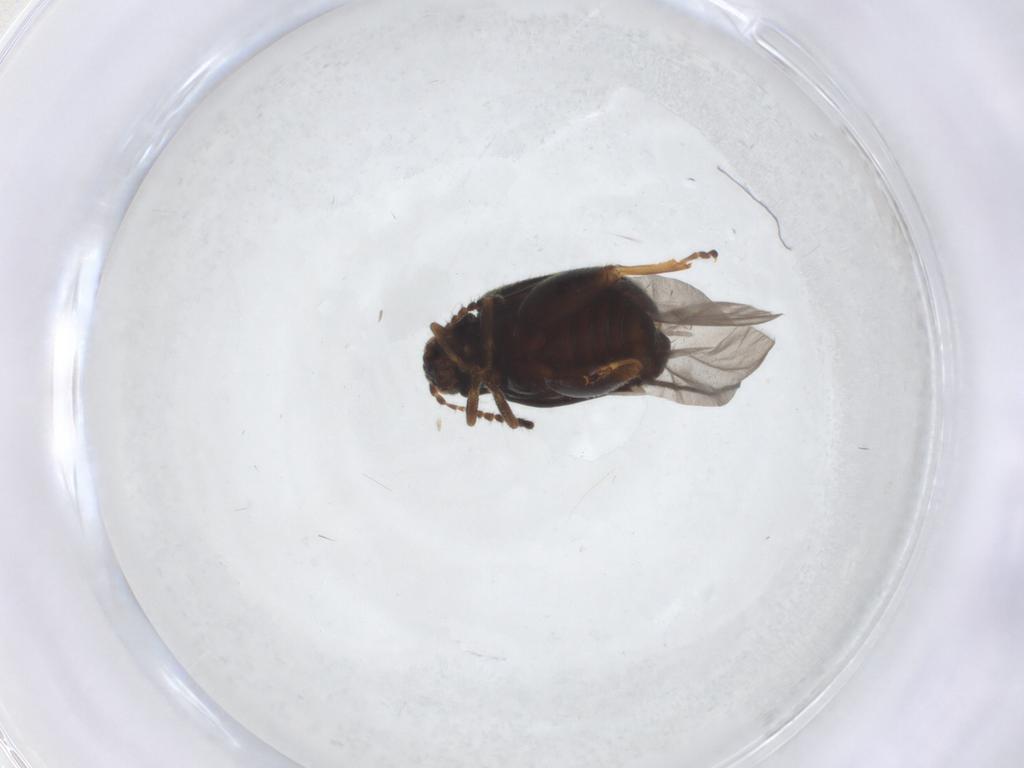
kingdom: Animalia
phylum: Arthropoda
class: Insecta
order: Coleoptera
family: Chrysomelidae
